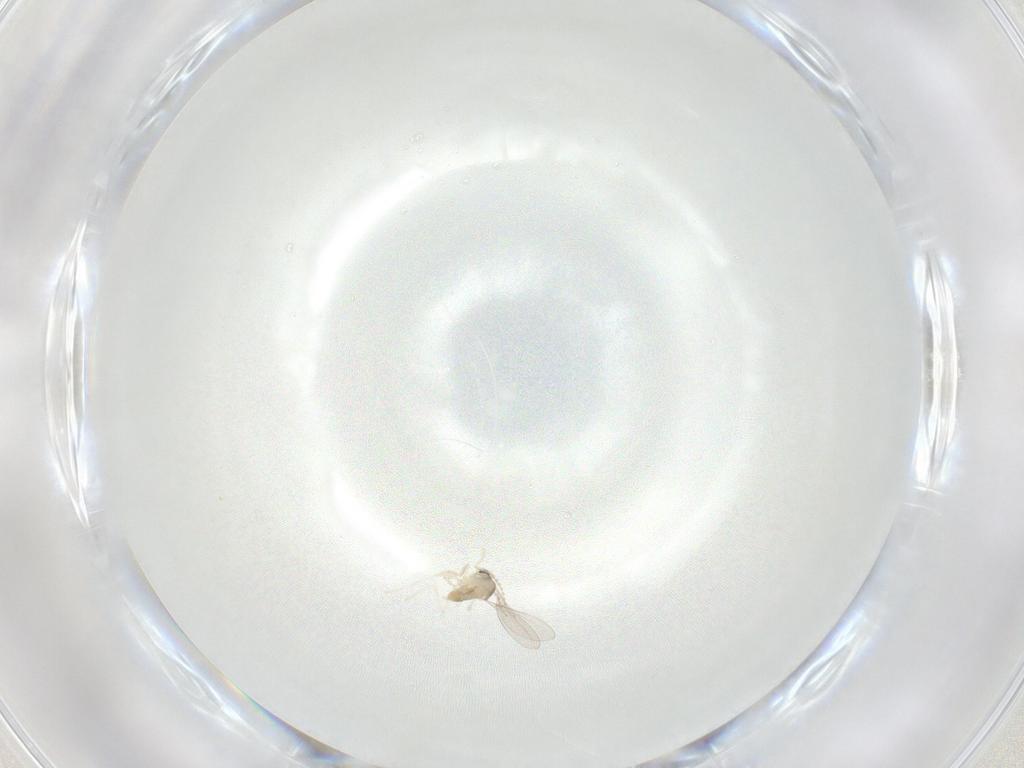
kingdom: Animalia
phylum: Arthropoda
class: Insecta
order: Diptera
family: Cecidomyiidae
